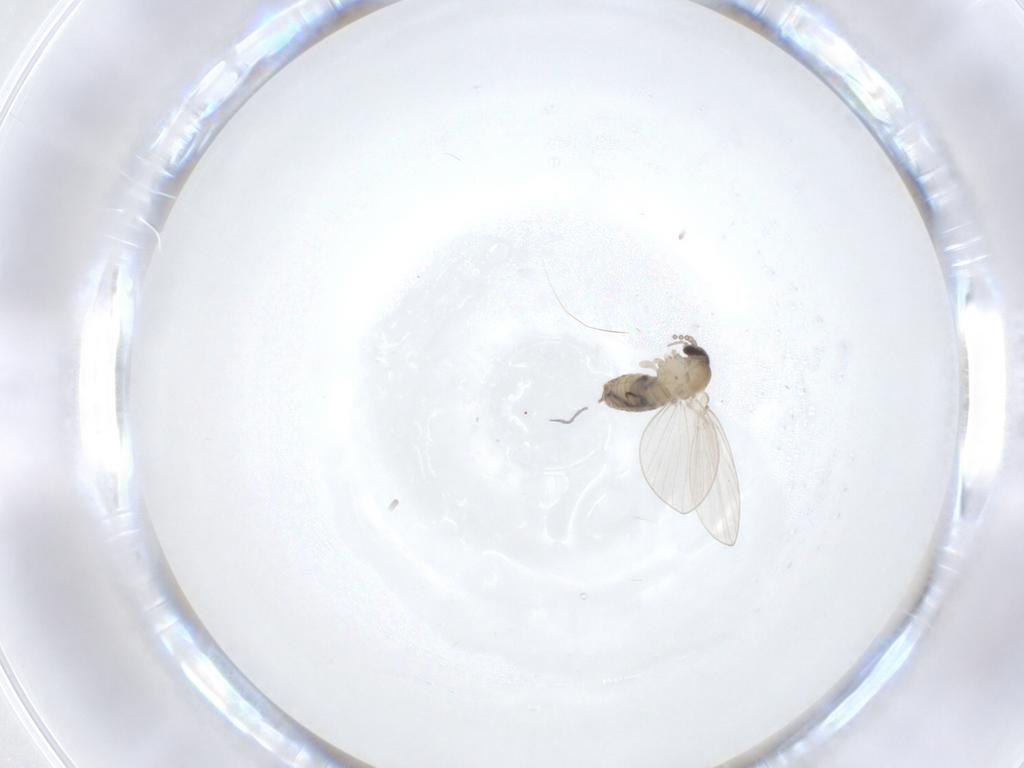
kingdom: Animalia
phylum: Arthropoda
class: Insecta
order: Diptera
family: Psychodidae
